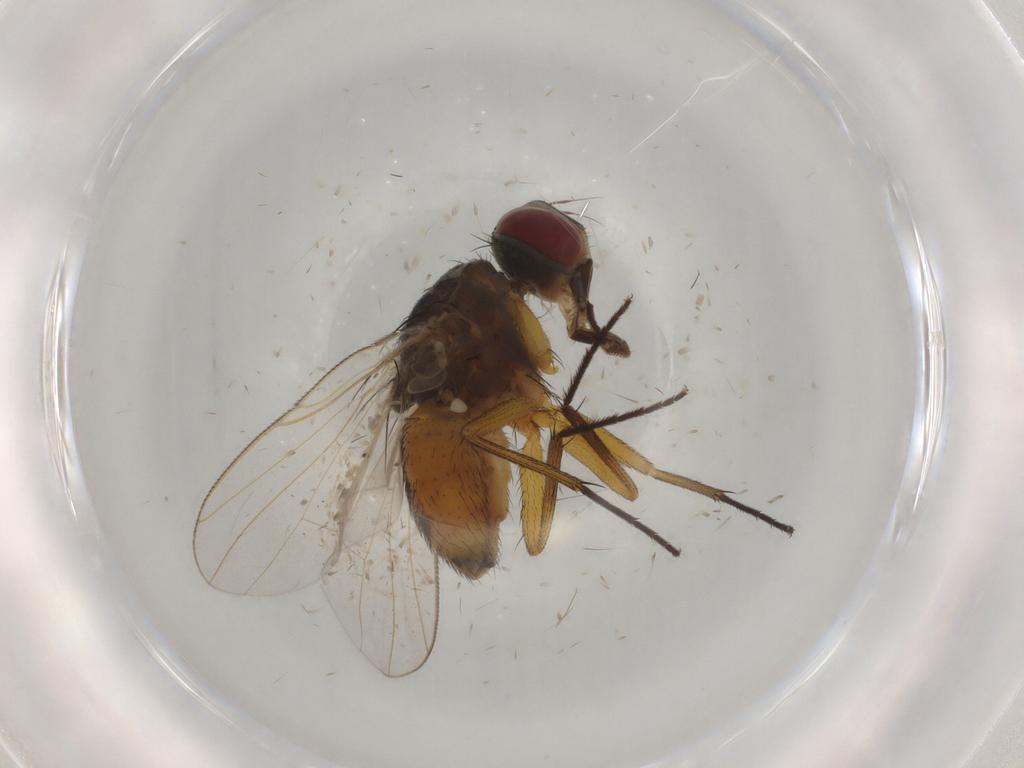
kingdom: Animalia
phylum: Arthropoda
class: Insecta
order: Diptera
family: Muscidae
